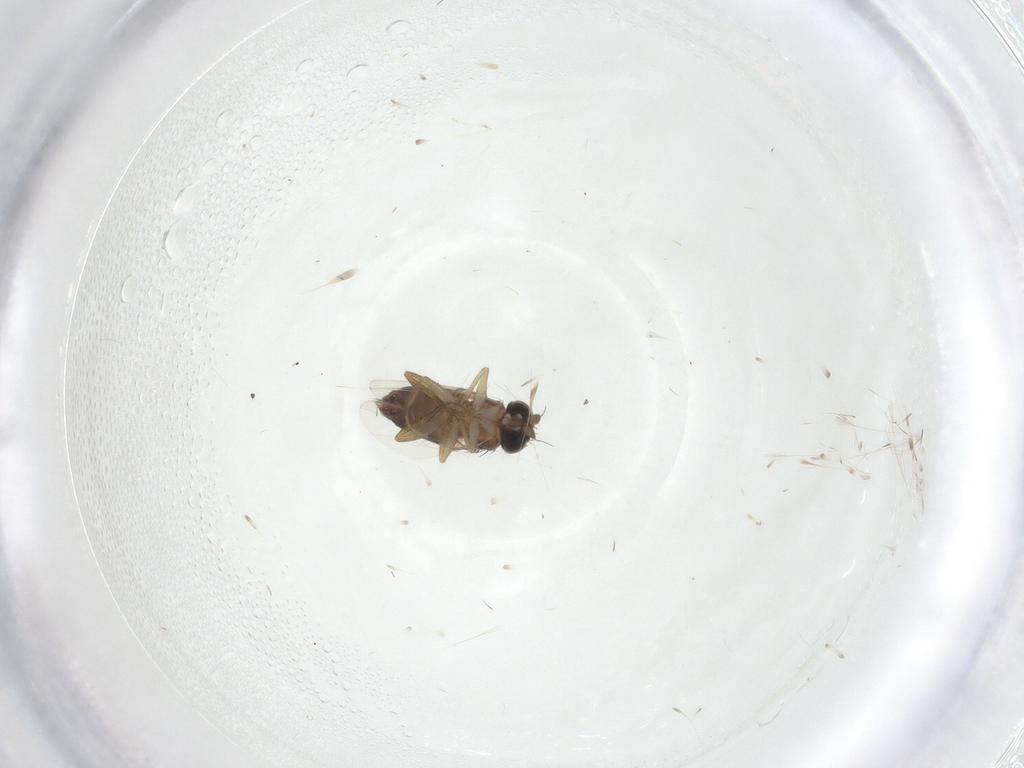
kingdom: Animalia
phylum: Arthropoda
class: Insecta
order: Diptera
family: Cecidomyiidae
